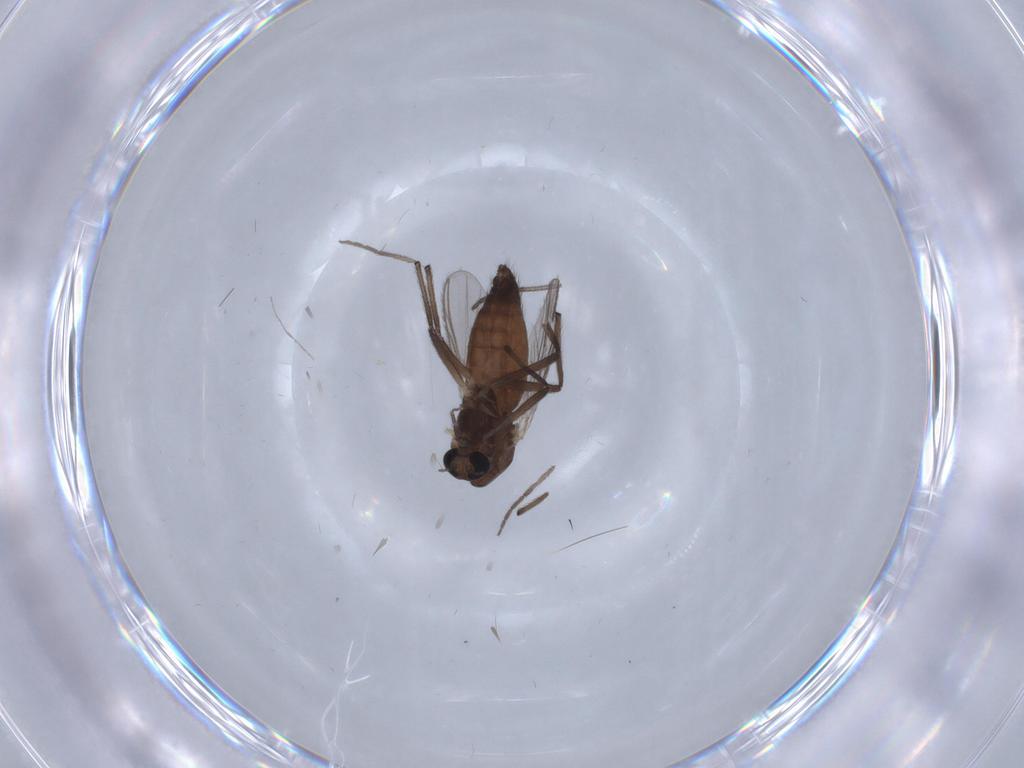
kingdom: Animalia
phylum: Arthropoda
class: Insecta
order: Diptera
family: Chironomidae
